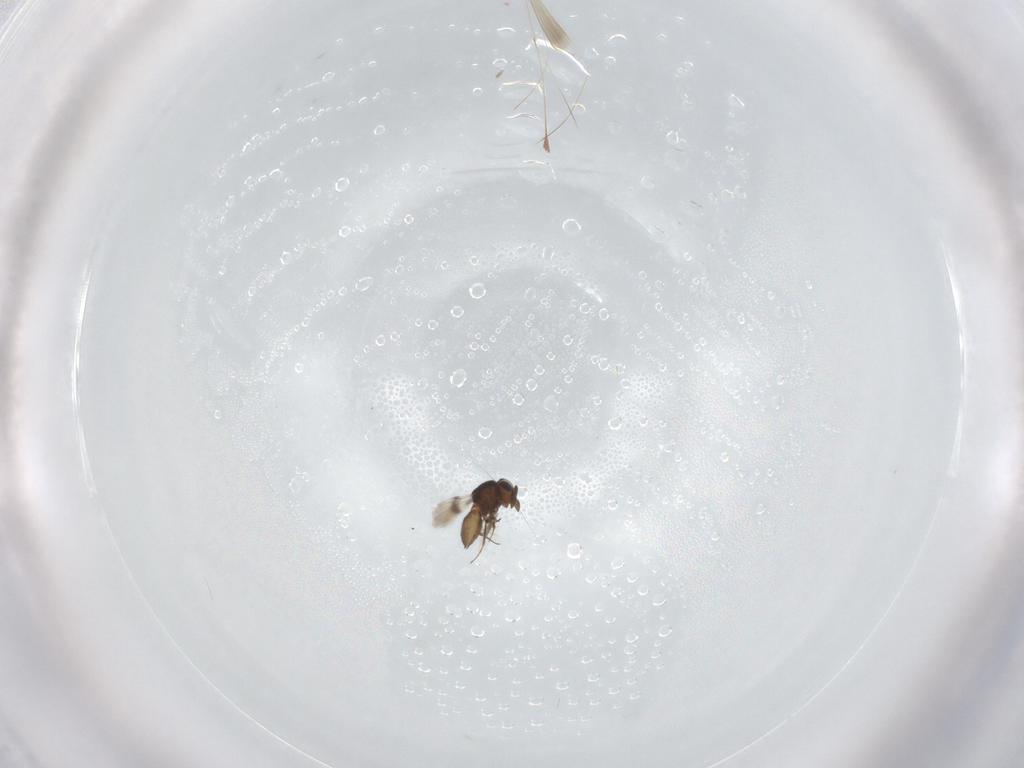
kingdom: Animalia
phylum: Arthropoda
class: Insecta
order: Hymenoptera
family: Scelionidae
